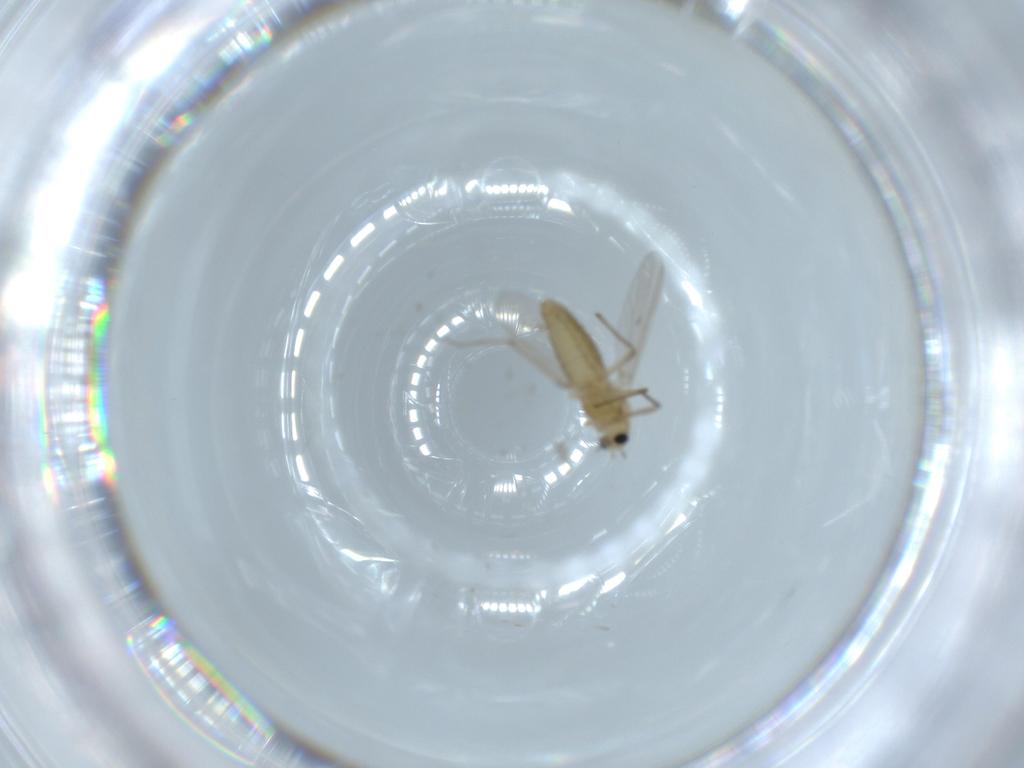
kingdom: Animalia
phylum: Arthropoda
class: Insecta
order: Diptera
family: Chironomidae
